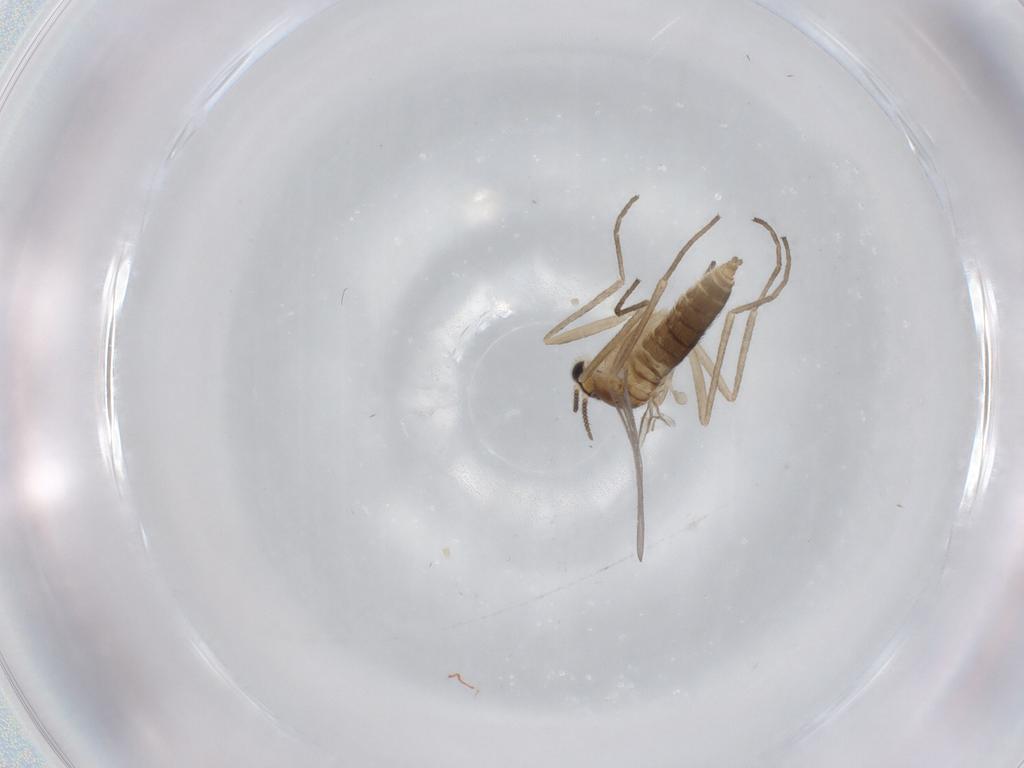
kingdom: Animalia
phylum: Arthropoda
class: Insecta
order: Diptera
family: Cecidomyiidae
